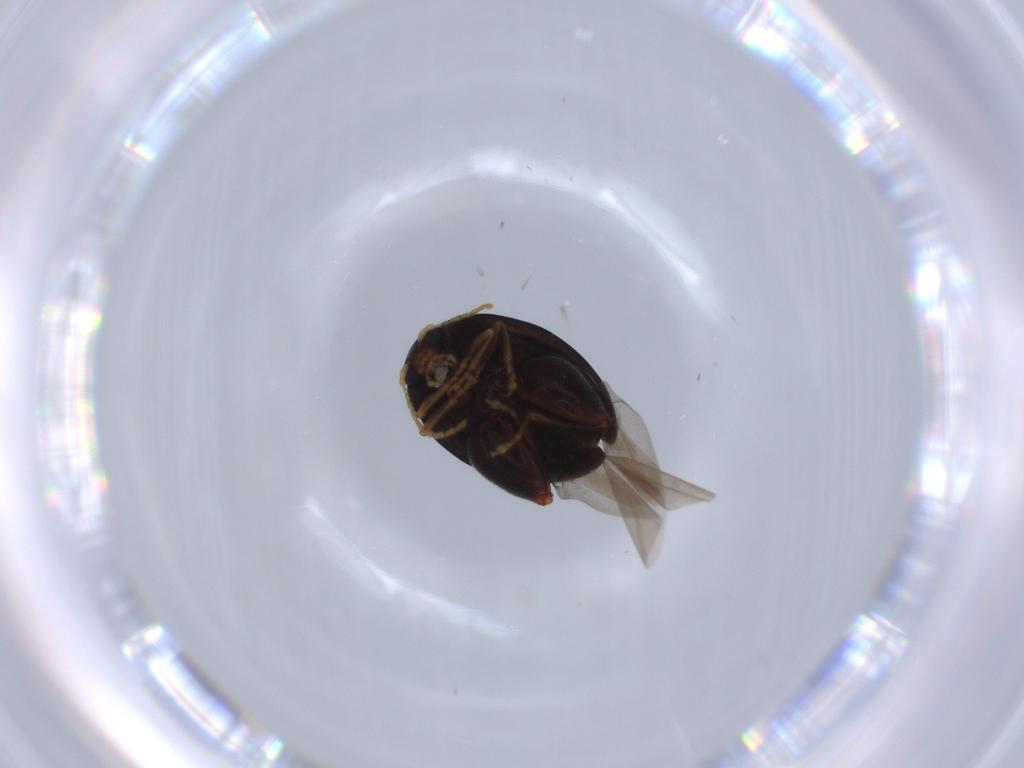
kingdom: Animalia
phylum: Arthropoda
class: Insecta
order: Coleoptera
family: Chrysomelidae
